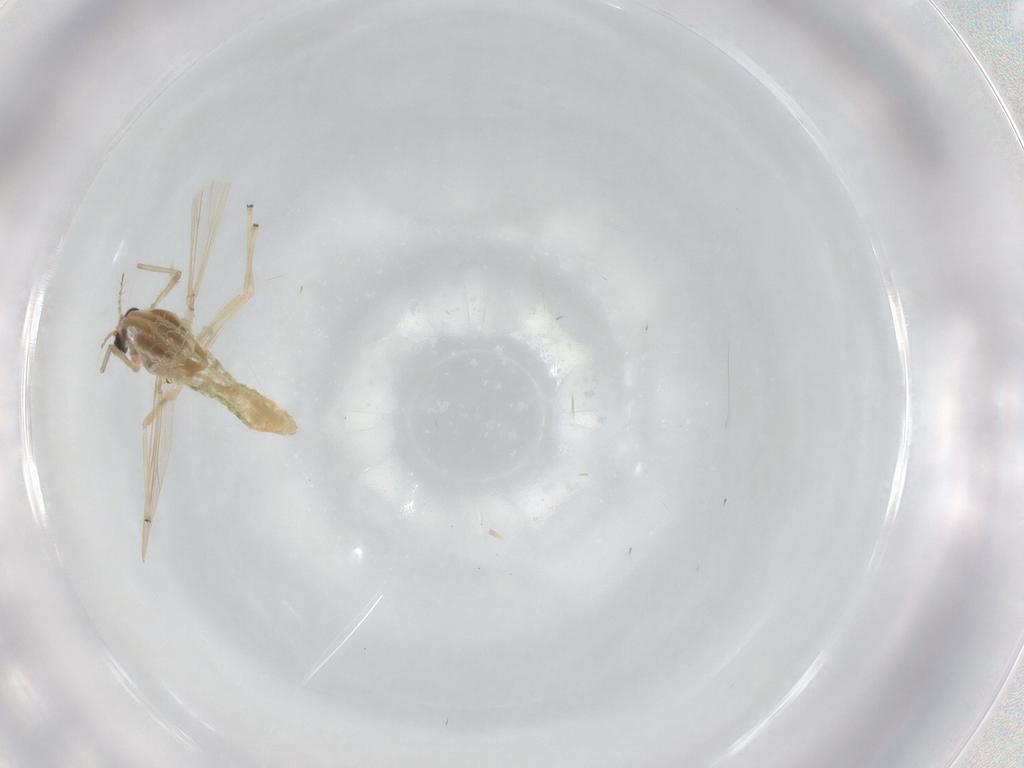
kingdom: Animalia
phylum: Arthropoda
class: Insecta
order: Diptera
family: Chironomidae
